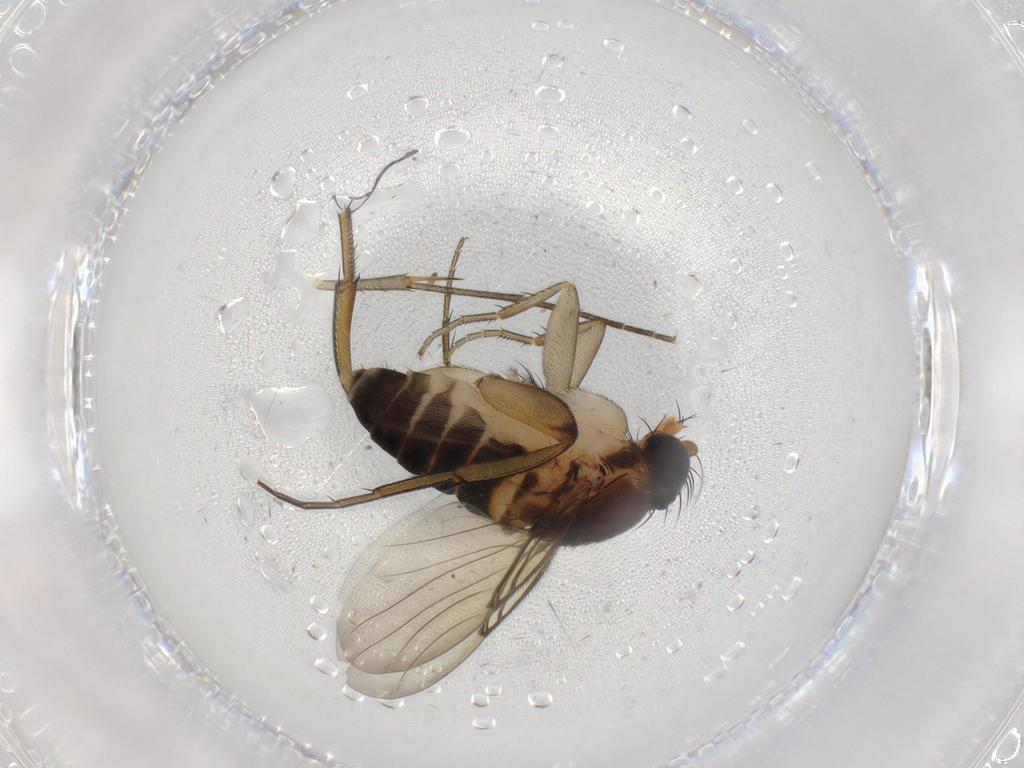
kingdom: Animalia
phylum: Arthropoda
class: Insecta
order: Diptera
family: Phoridae
